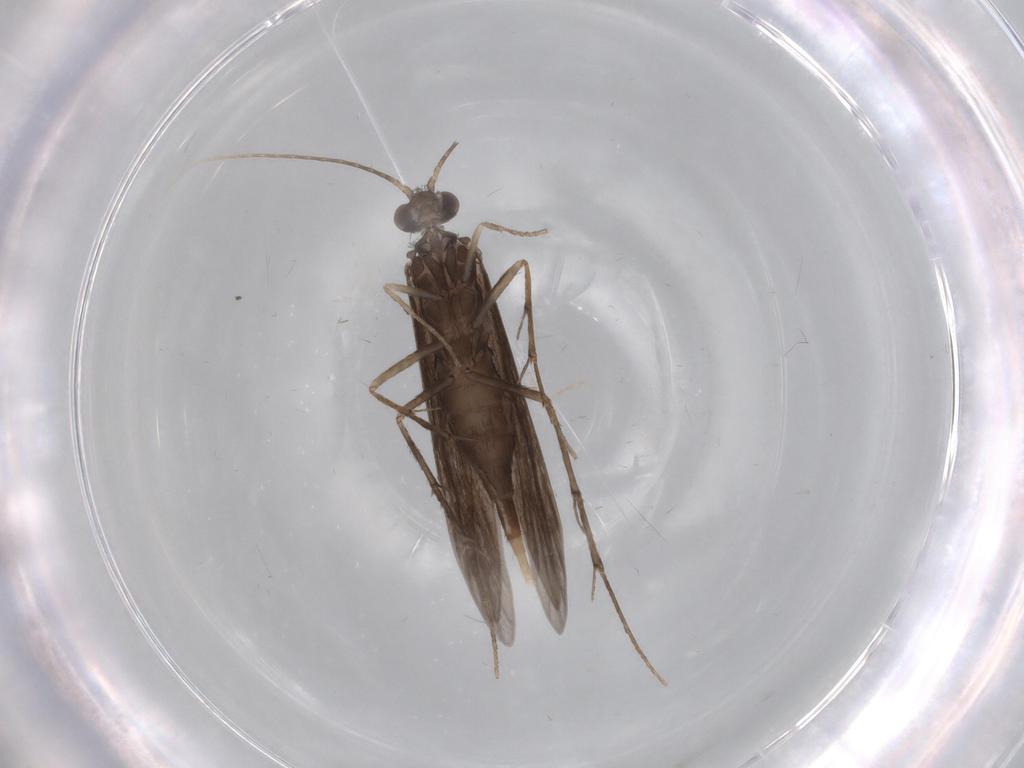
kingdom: Animalia
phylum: Arthropoda
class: Insecta
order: Trichoptera
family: Xiphocentronidae
